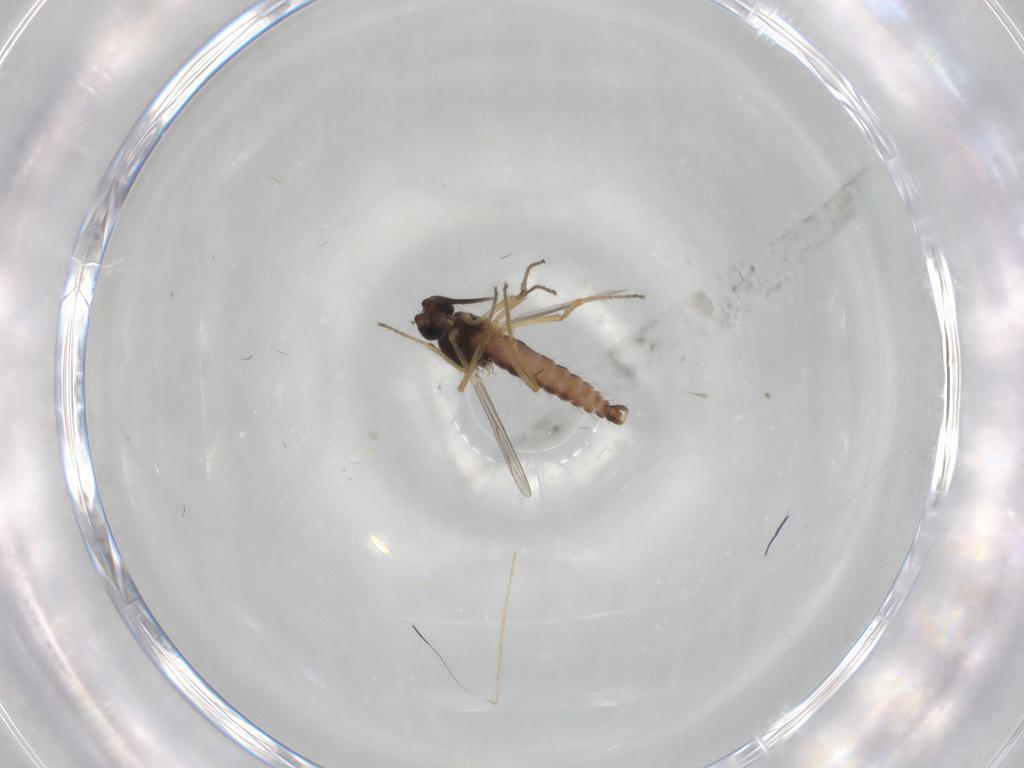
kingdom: Animalia
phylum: Arthropoda
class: Insecta
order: Diptera
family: Ceratopogonidae
